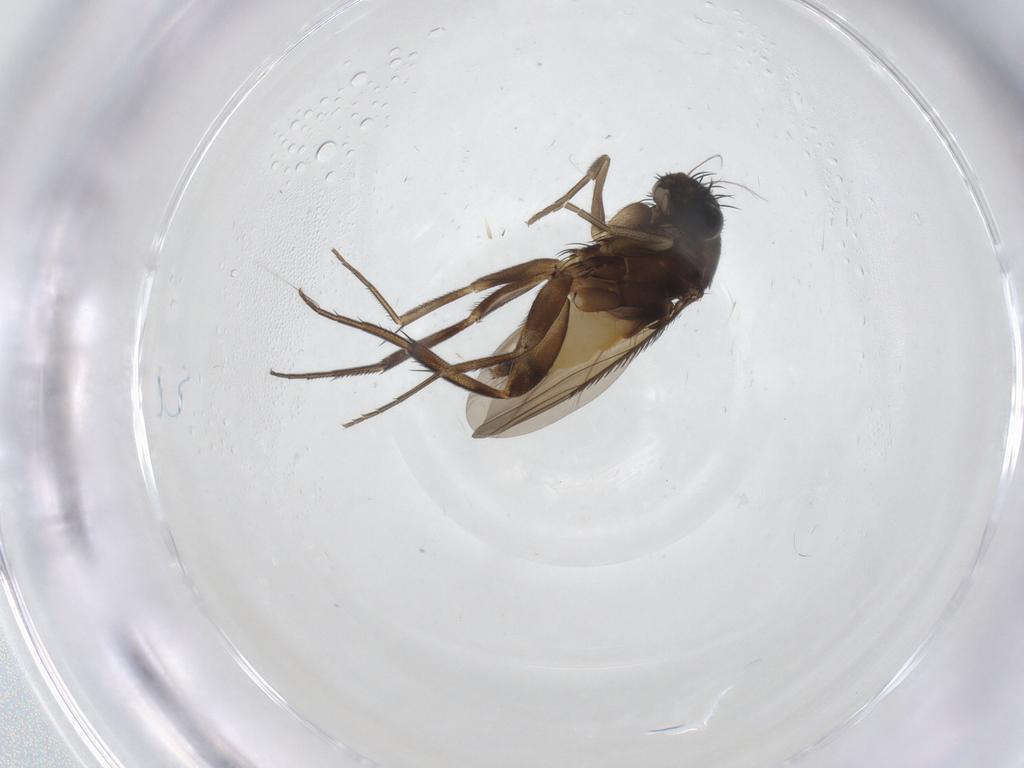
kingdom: Animalia
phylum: Arthropoda
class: Insecta
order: Diptera
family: Phoridae
